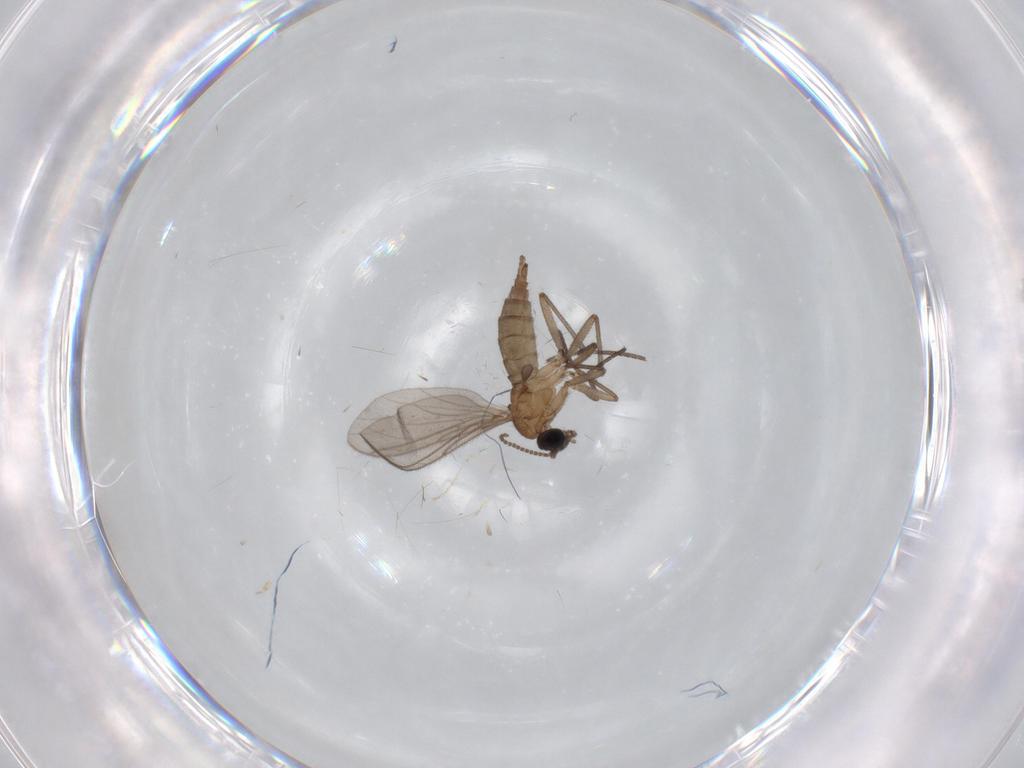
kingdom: Animalia
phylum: Arthropoda
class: Insecta
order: Diptera
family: Sciaridae
